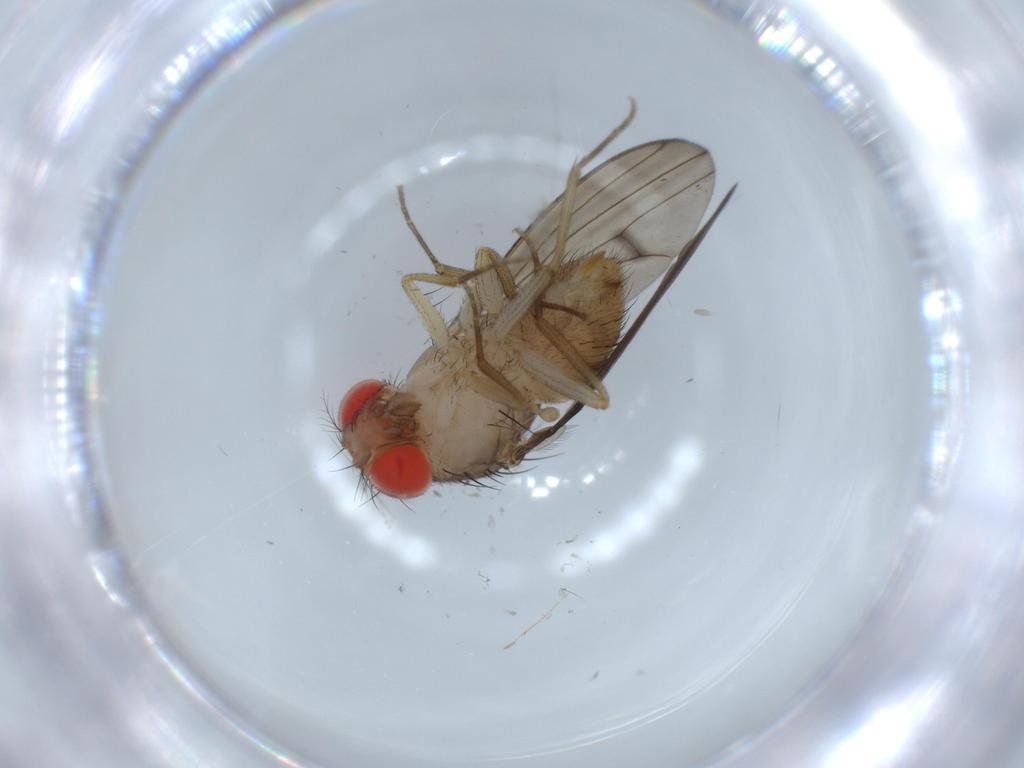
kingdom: Animalia
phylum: Arthropoda
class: Insecta
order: Diptera
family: Drosophilidae
